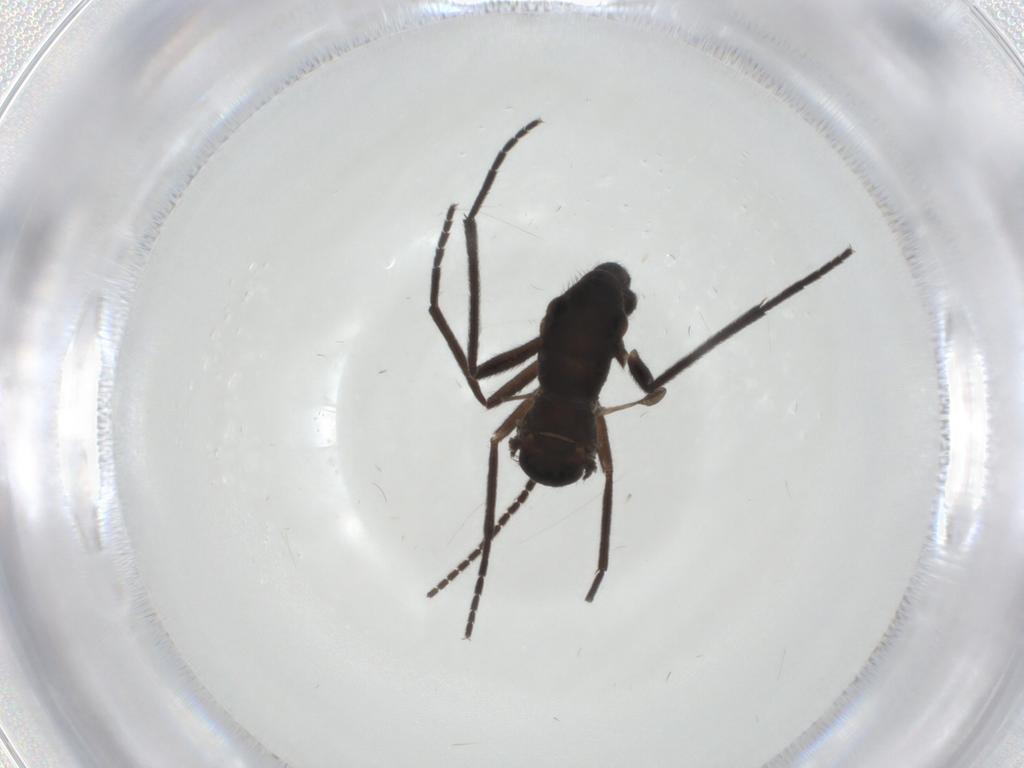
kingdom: Animalia
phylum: Arthropoda
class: Insecta
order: Diptera
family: Sciaridae
